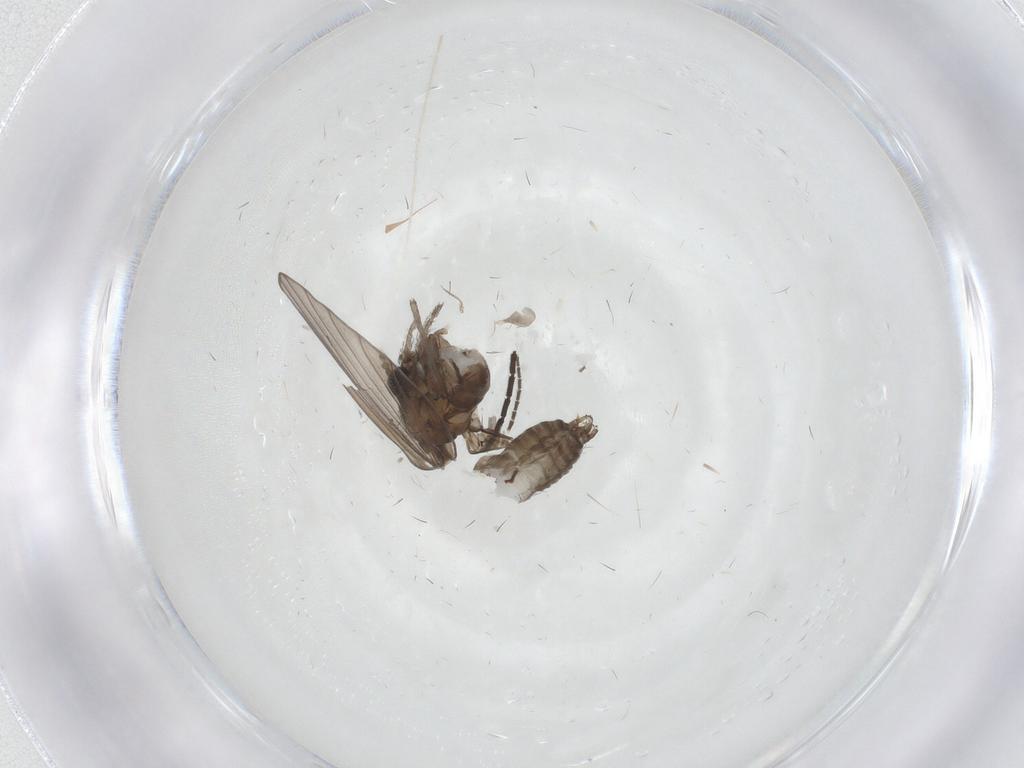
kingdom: Animalia
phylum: Arthropoda
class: Insecta
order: Diptera
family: Psychodidae
